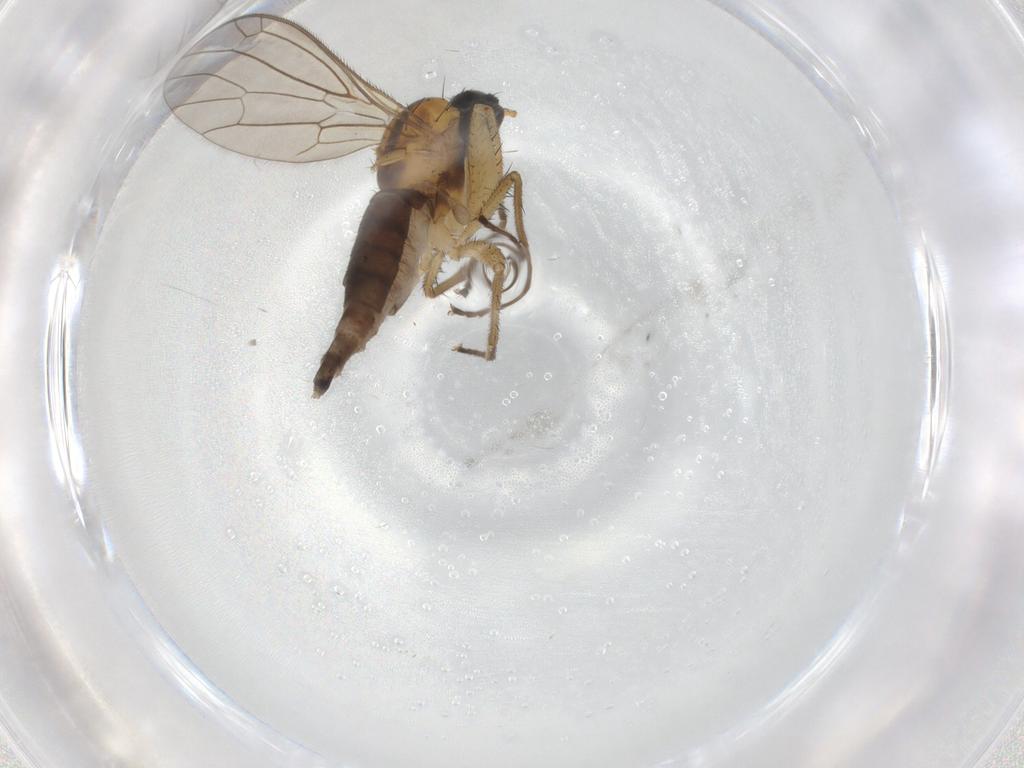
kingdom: Animalia
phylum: Arthropoda
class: Insecta
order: Diptera
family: Empididae
